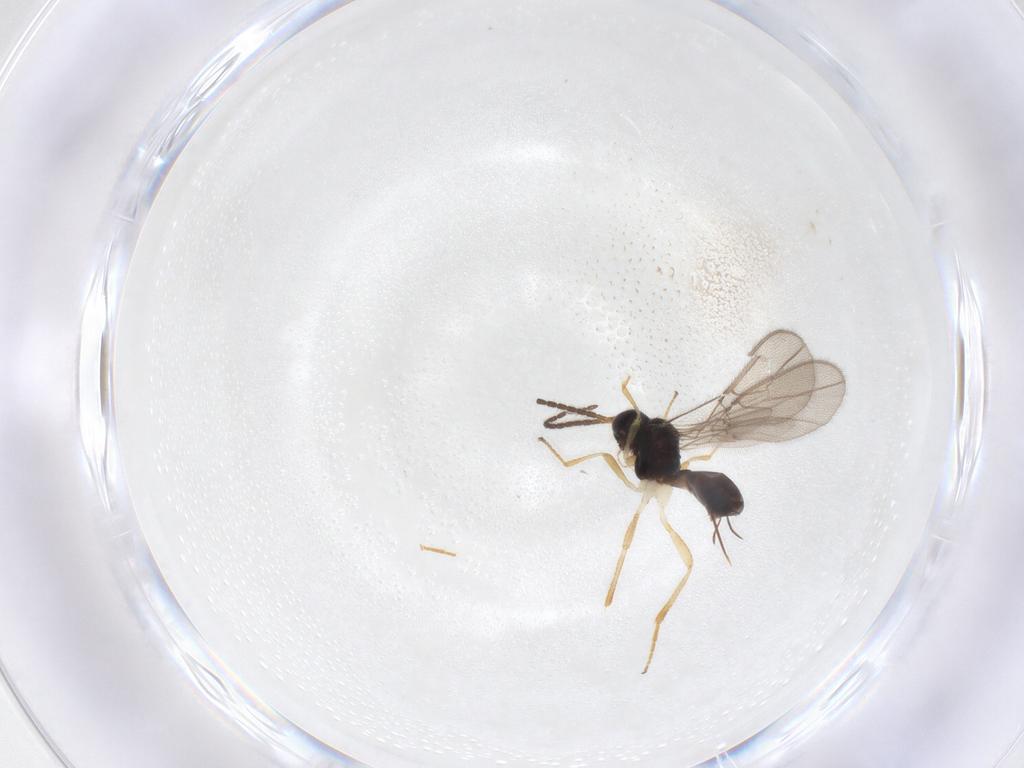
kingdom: Animalia
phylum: Arthropoda
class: Insecta
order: Hymenoptera
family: Braconidae
